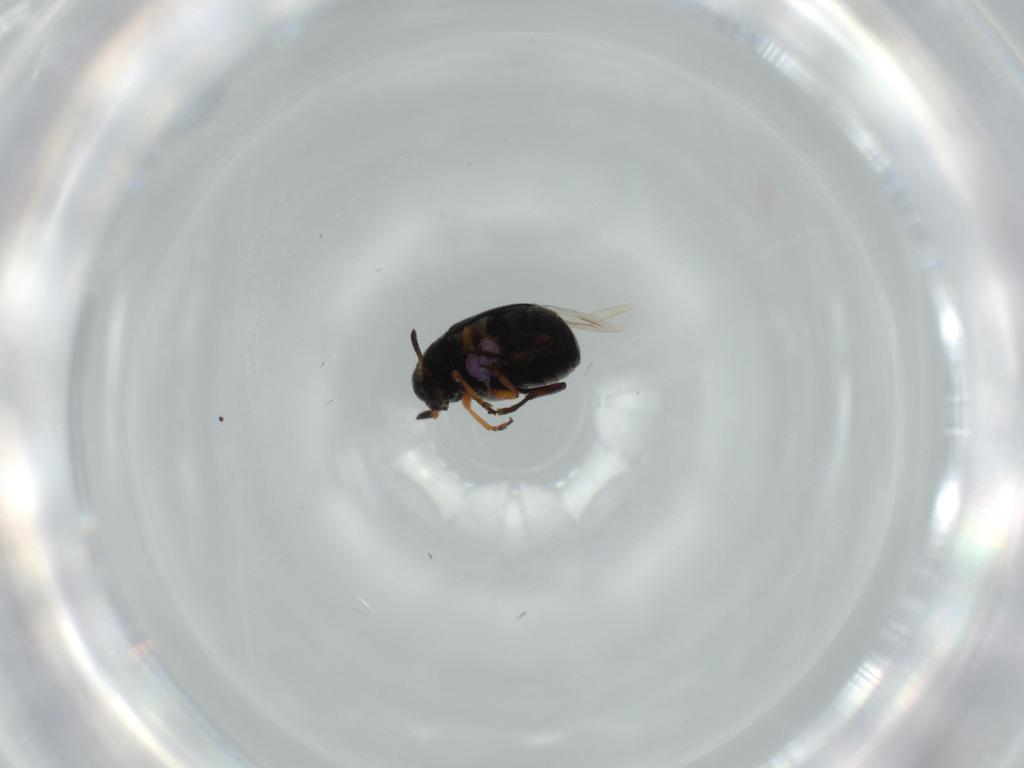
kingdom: Animalia
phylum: Arthropoda
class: Insecta
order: Coleoptera
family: Chrysomelidae
